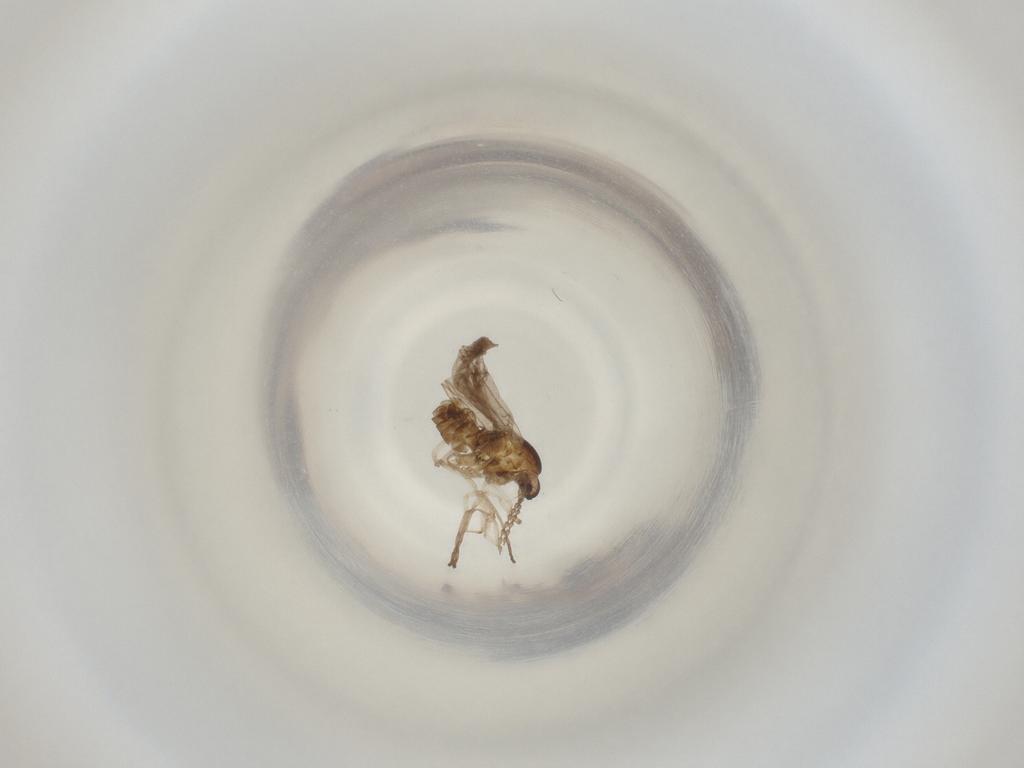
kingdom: Animalia
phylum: Arthropoda
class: Insecta
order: Diptera
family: Cecidomyiidae
